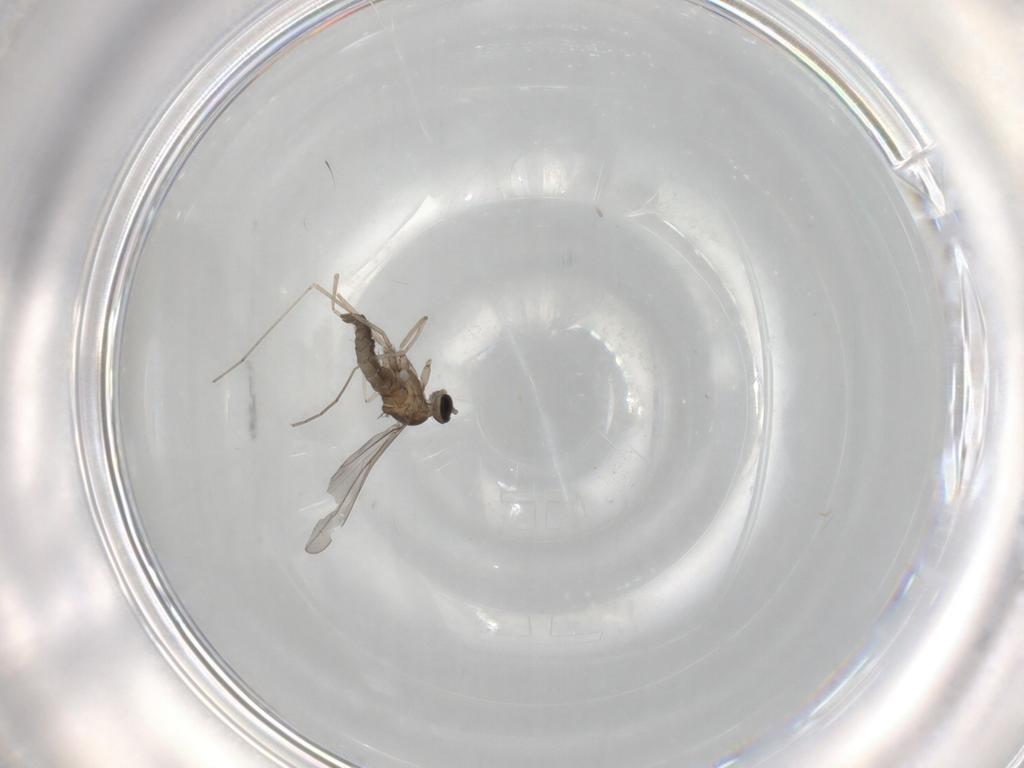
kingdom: Animalia
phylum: Arthropoda
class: Insecta
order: Diptera
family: Cecidomyiidae
